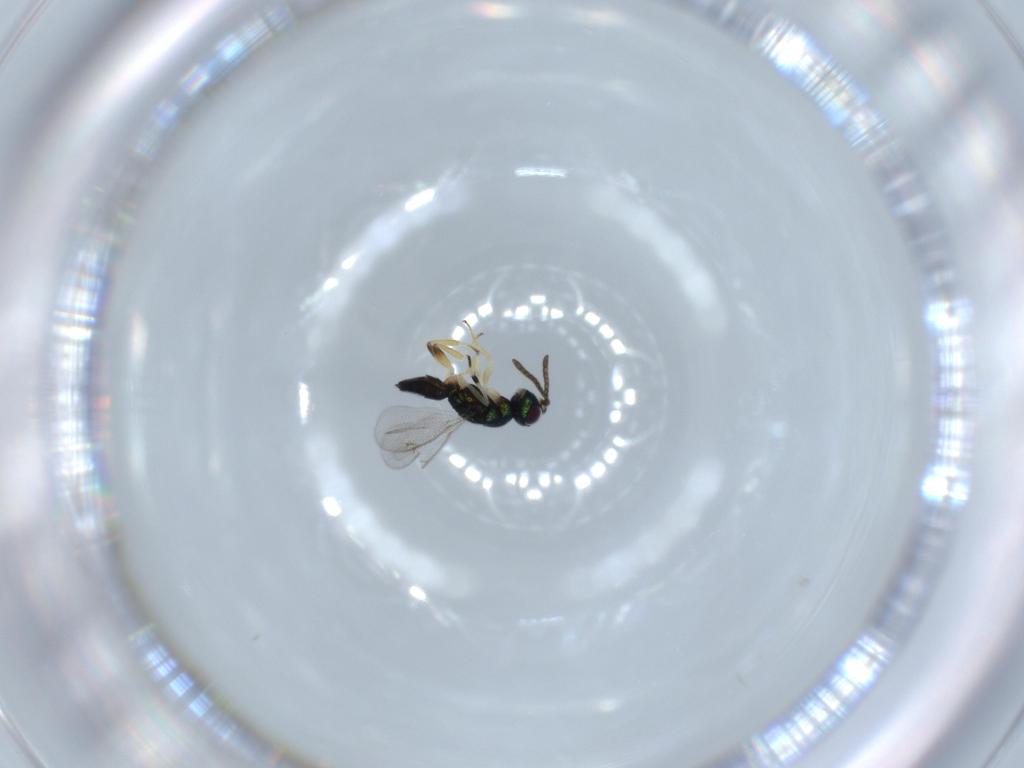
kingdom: Animalia
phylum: Arthropoda
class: Insecta
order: Hymenoptera
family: Eupelmidae
